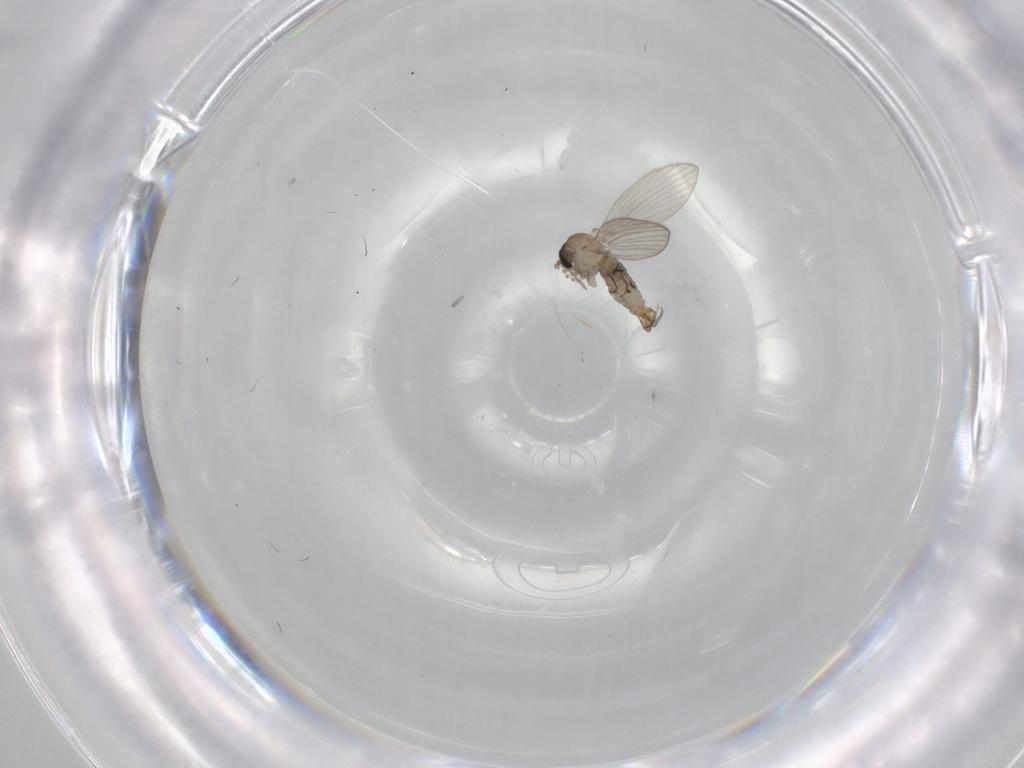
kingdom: Animalia
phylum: Arthropoda
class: Insecta
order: Diptera
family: Psychodidae
